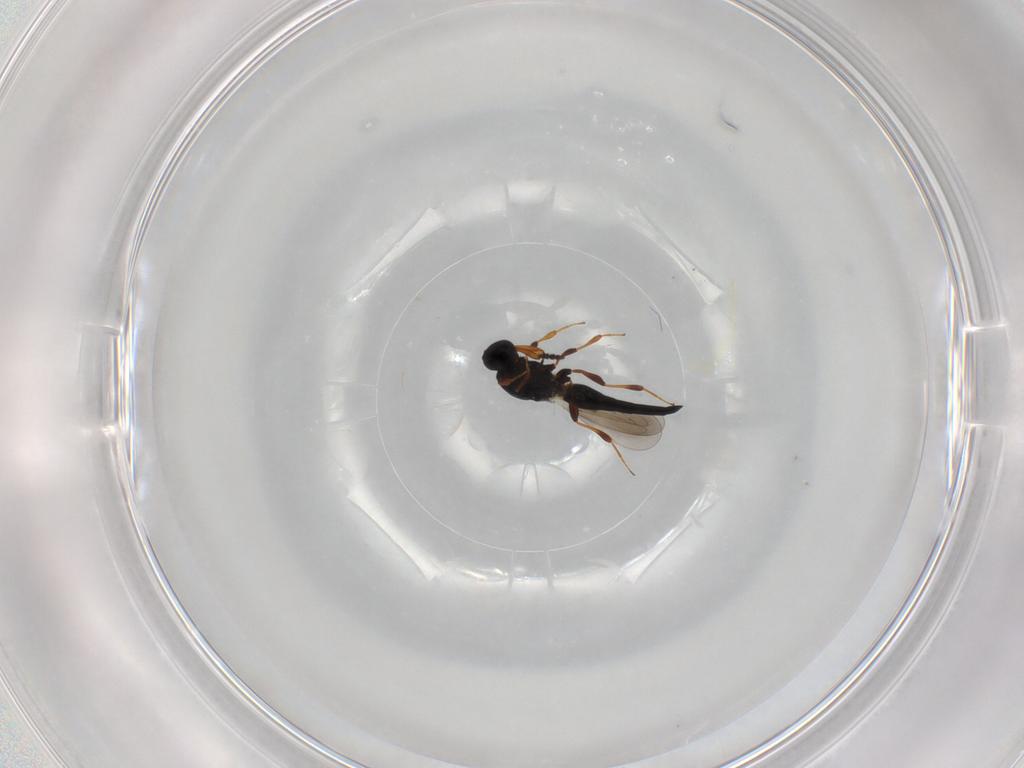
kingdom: Animalia
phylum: Arthropoda
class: Insecta
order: Hymenoptera
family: Platygastridae
